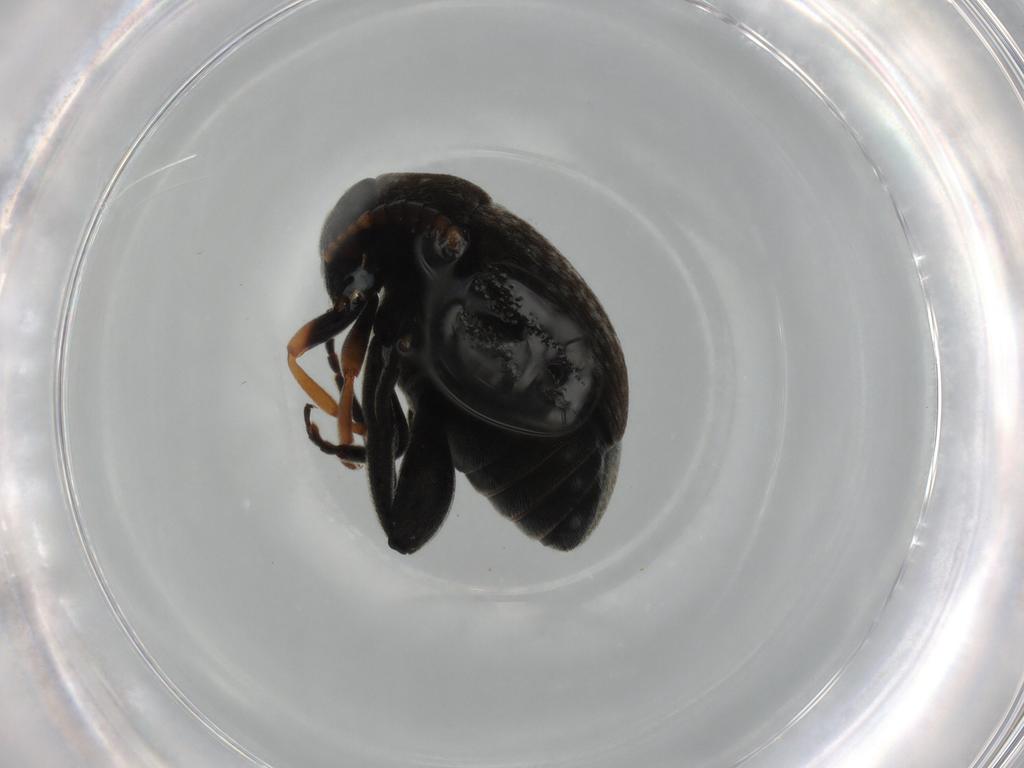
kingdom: Animalia
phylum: Arthropoda
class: Insecta
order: Coleoptera
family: Chrysomelidae
